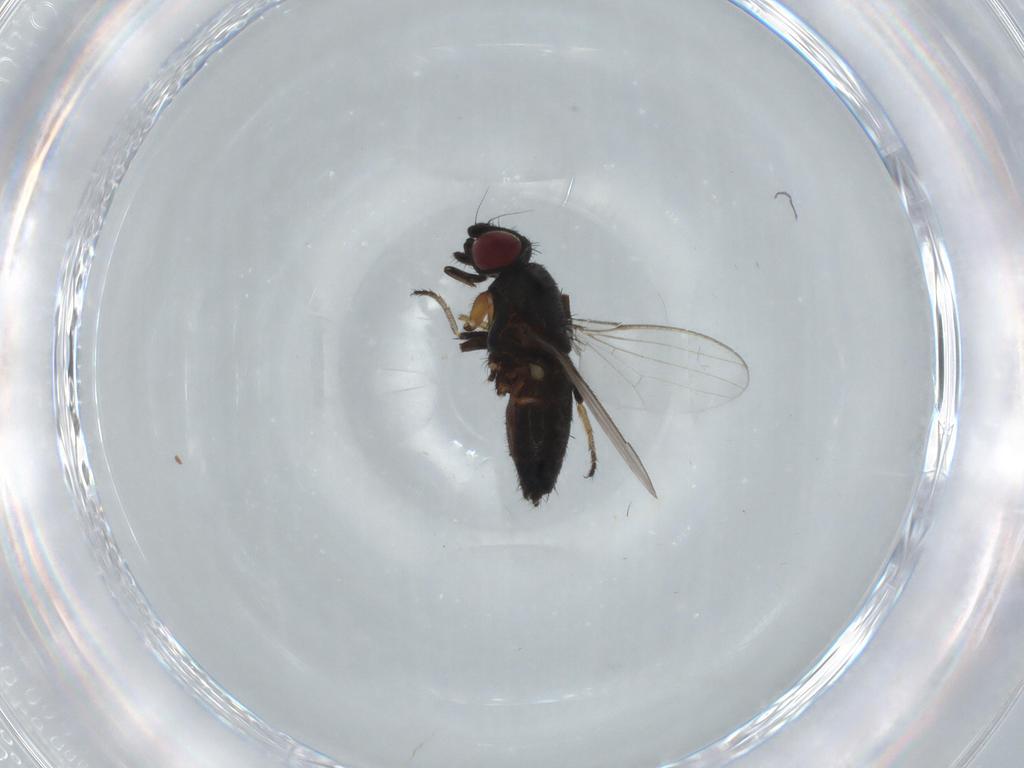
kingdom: Animalia
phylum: Arthropoda
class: Insecta
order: Diptera
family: Milichiidae
